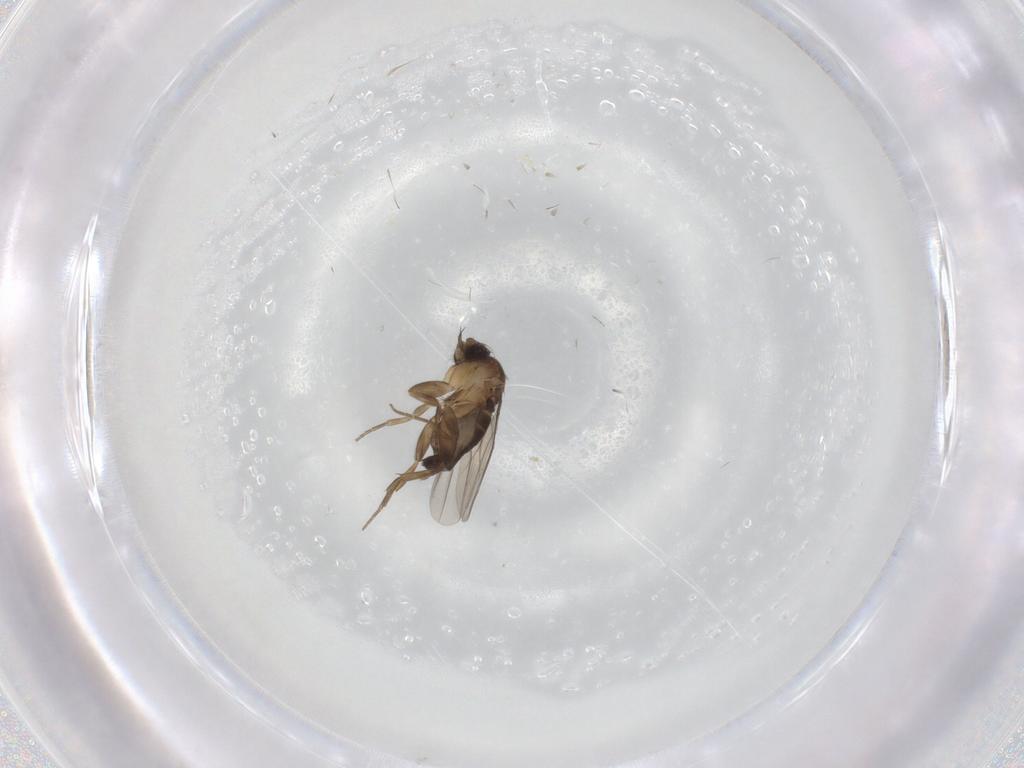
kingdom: Animalia
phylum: Arthropoda
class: Insecta
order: Diptera
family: Phoridae
